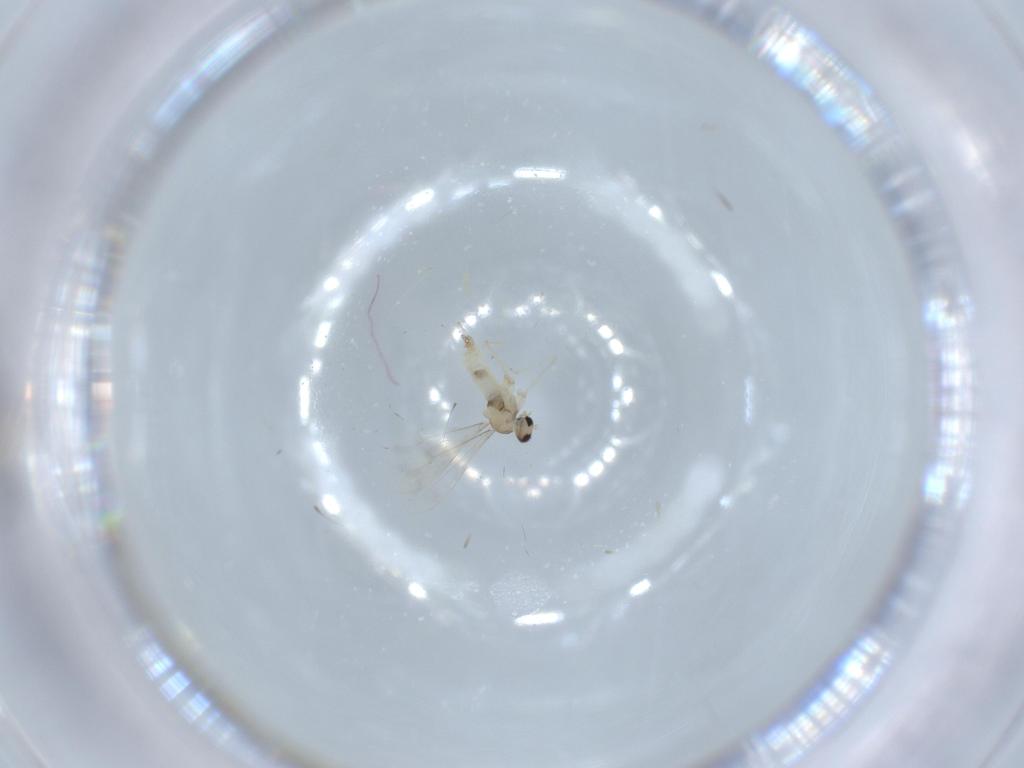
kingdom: Animalia
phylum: Arthropoda
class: Insecta
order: Diptera
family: Cecidomyiidae
